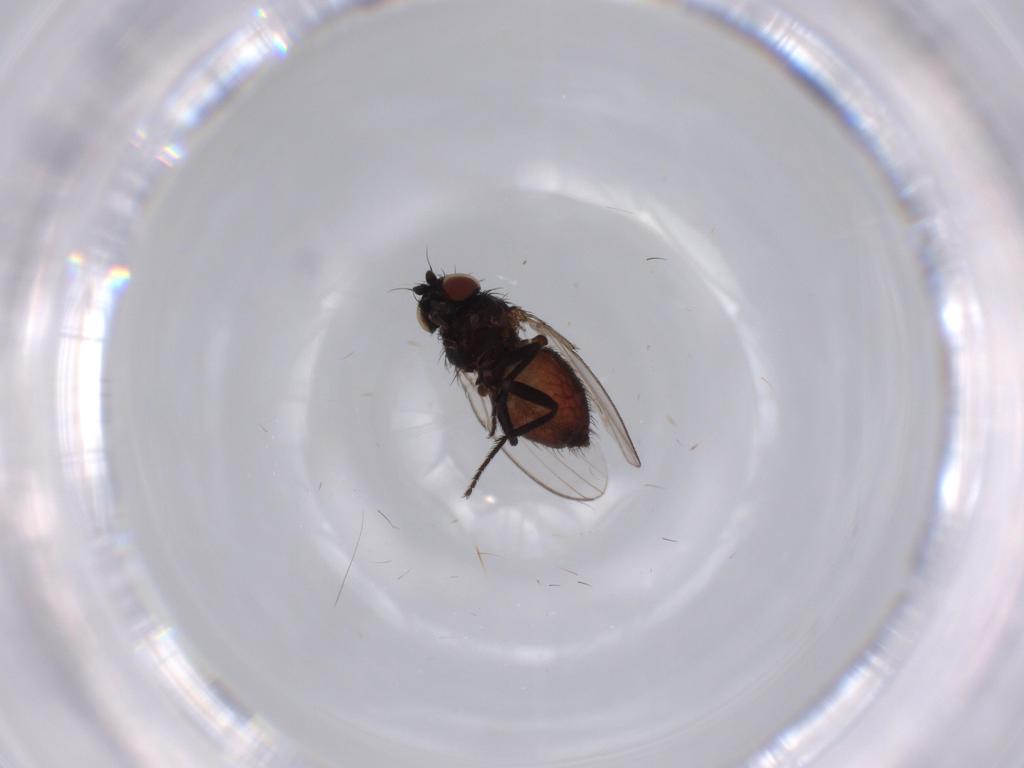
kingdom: Animalia
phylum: Arthropoda
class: Insecta
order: Diptera
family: Milichiidae
